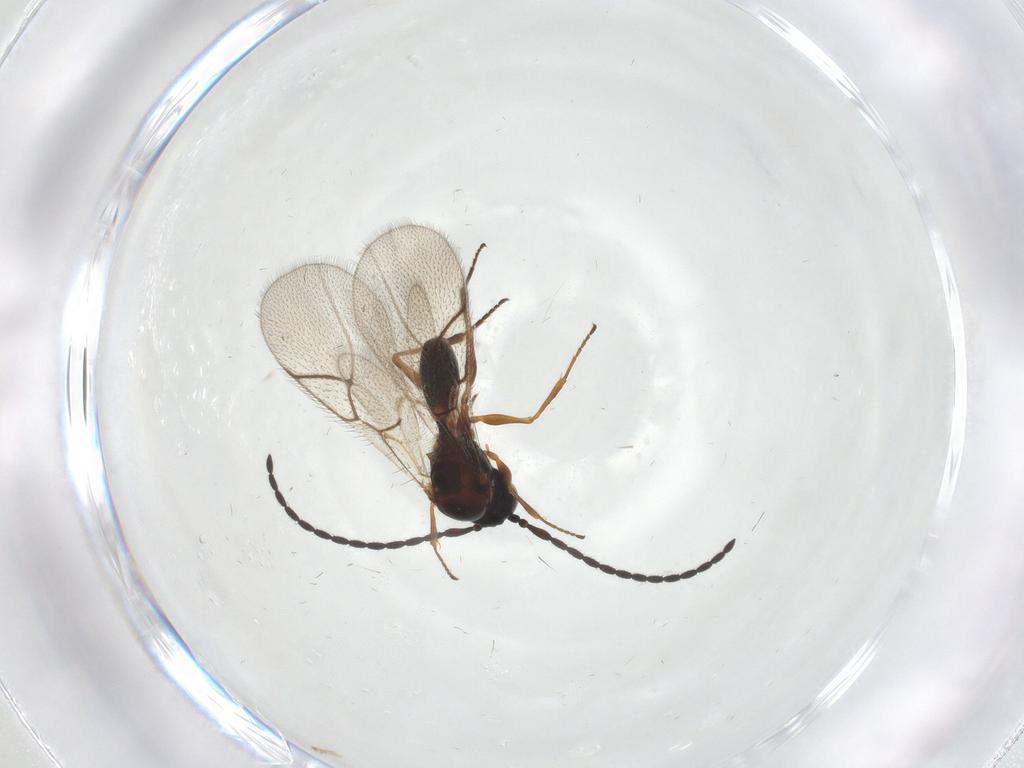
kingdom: Animalia
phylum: Arthropoda
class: Insecta
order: Hymenoptera
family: Figitidae
